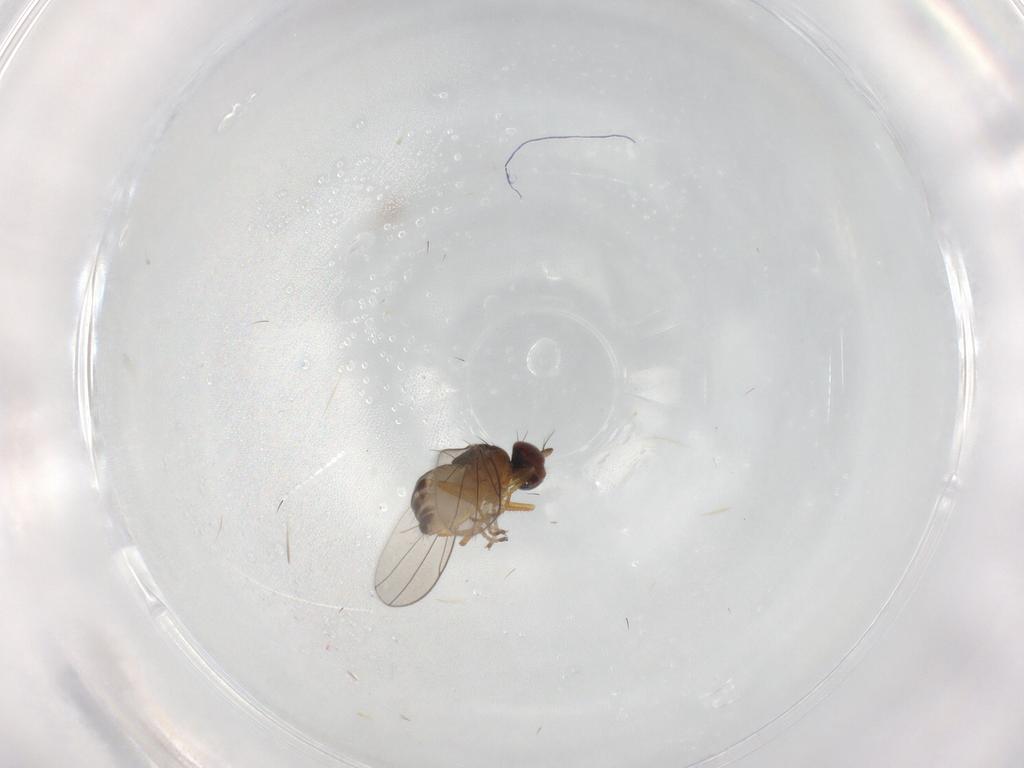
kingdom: Animalia
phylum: Arthropoda
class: Insecta
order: Diptera
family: Ephydridae
